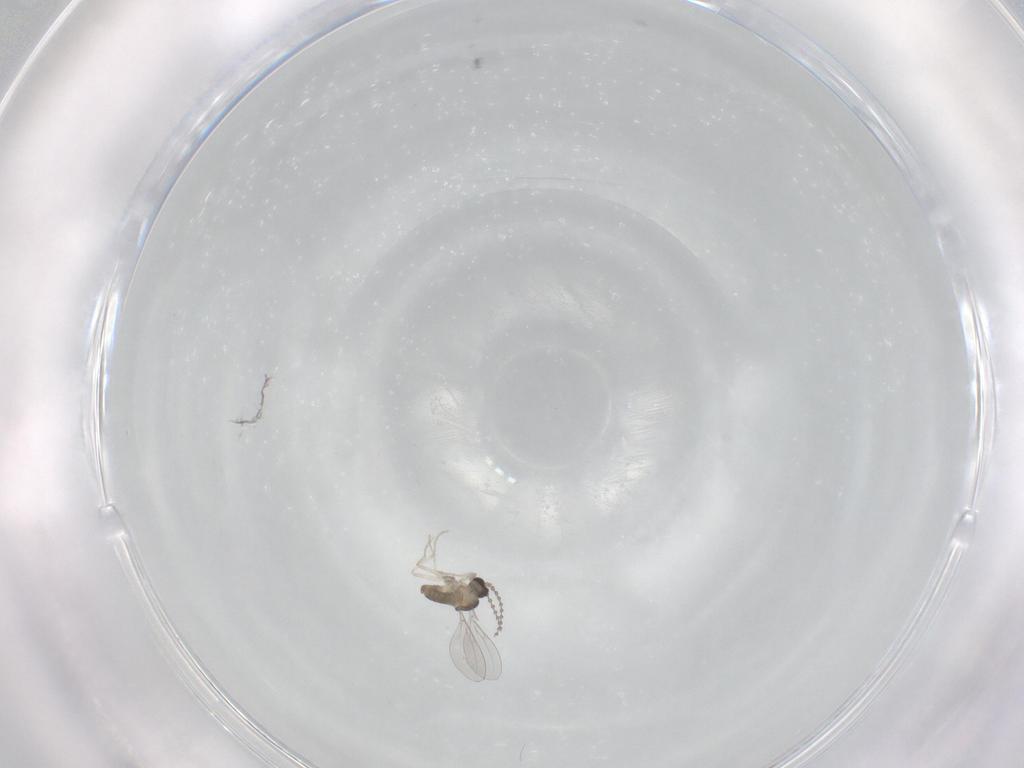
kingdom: Animalia
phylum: Arthropoda
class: Insecta
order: Diptera
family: Cecidomyiidae
